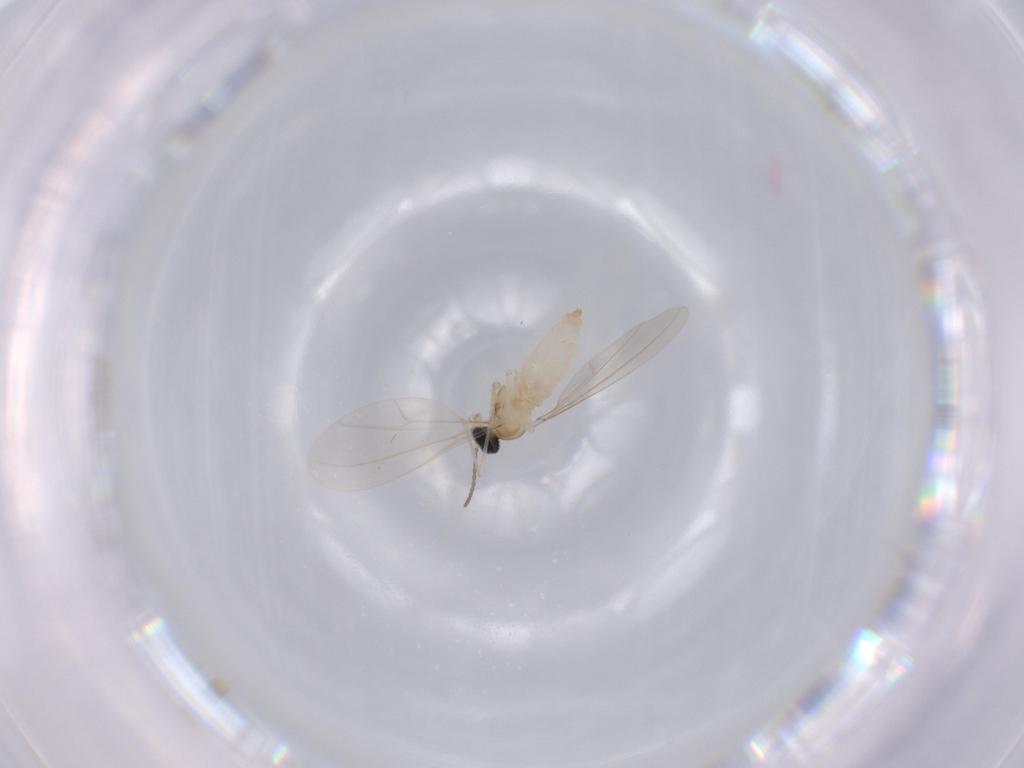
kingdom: Animalia
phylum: Arthropoda
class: Insecta
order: Diptera
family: Sciaridae
